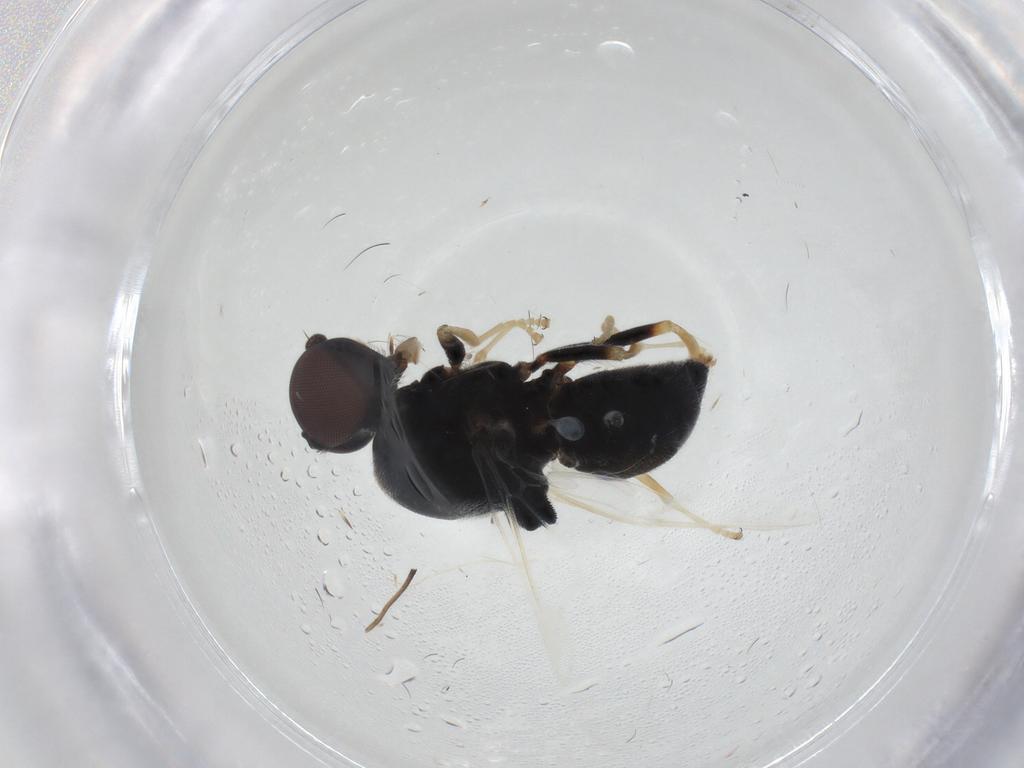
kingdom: Animalia
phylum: Arthropoda
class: Insecta
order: Diptera
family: Stratiomyidae
